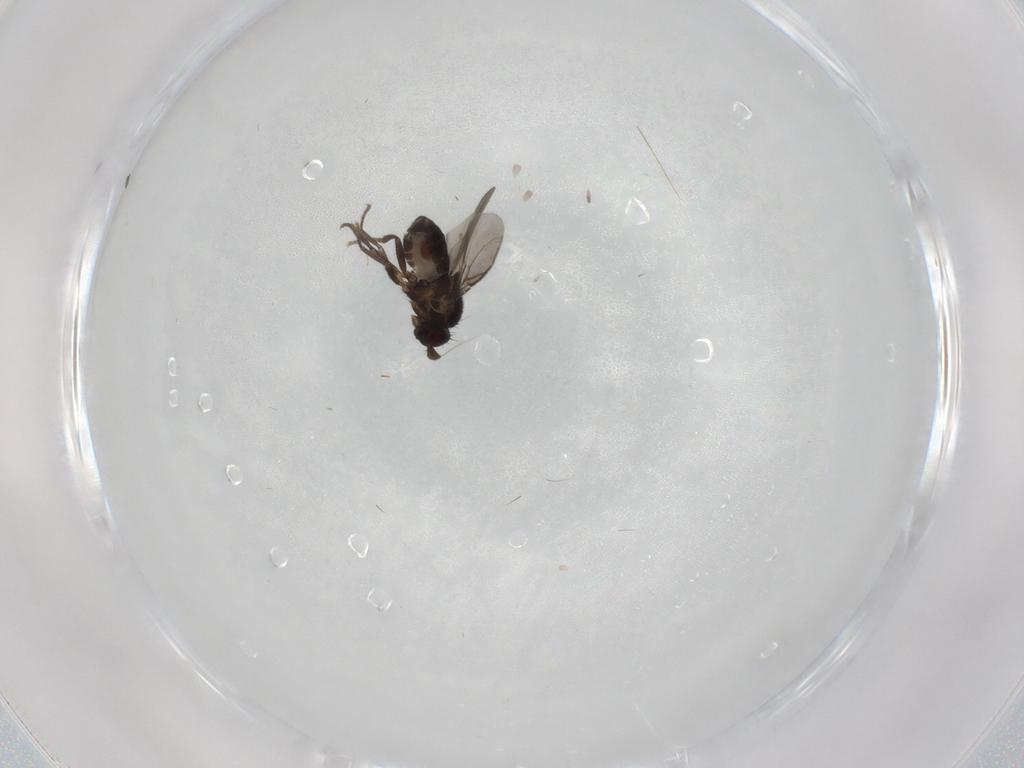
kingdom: Animalia
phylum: Arthropoda
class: Insecta
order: Diptera
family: Sphaeroceridae
